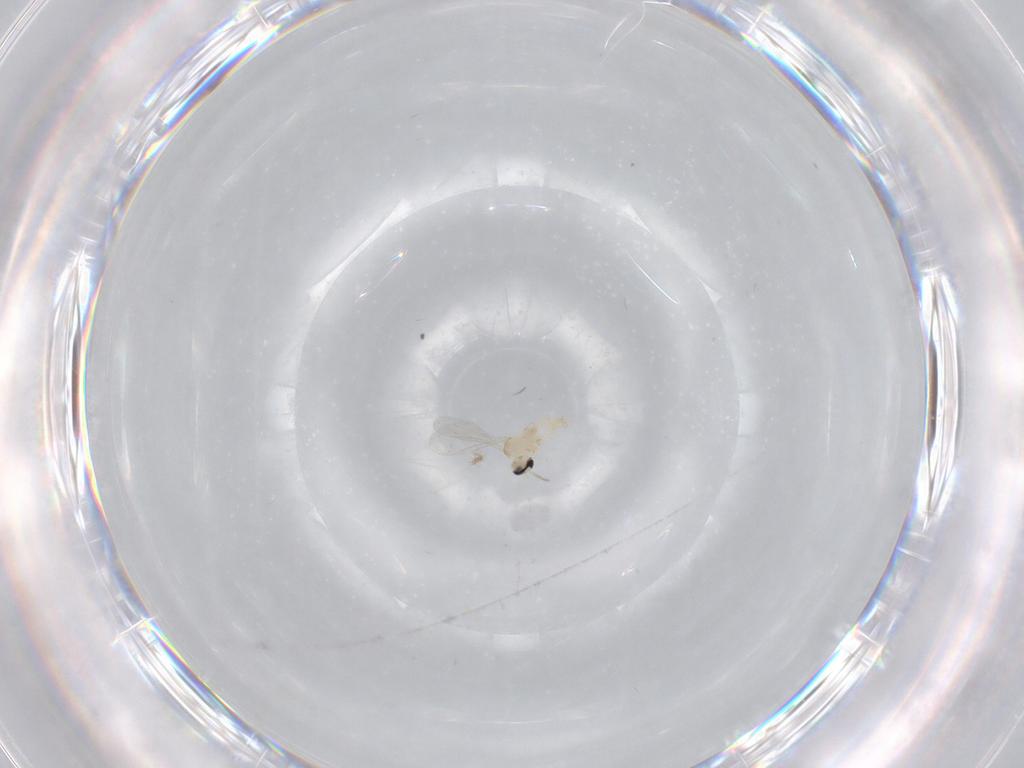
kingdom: Animalia
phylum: Arthropoda
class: Insecta
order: Diptera
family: Cecidomyiidae
